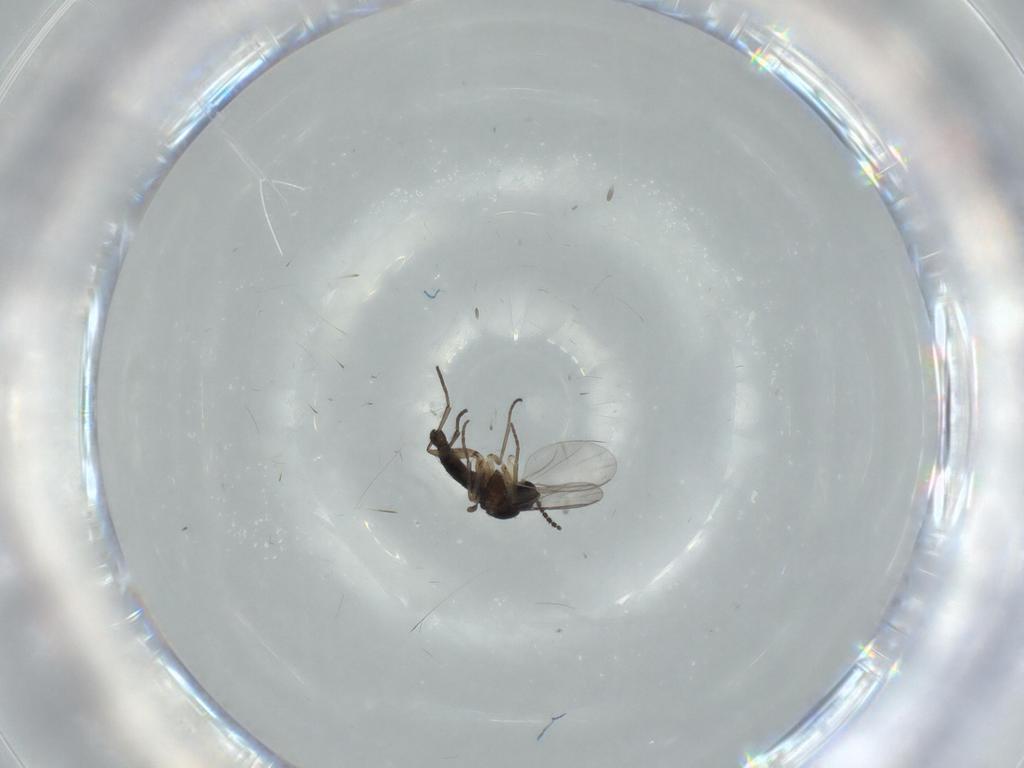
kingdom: Animalia
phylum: Arthropoda
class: Insecta
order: Diptera
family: Sciaridae
